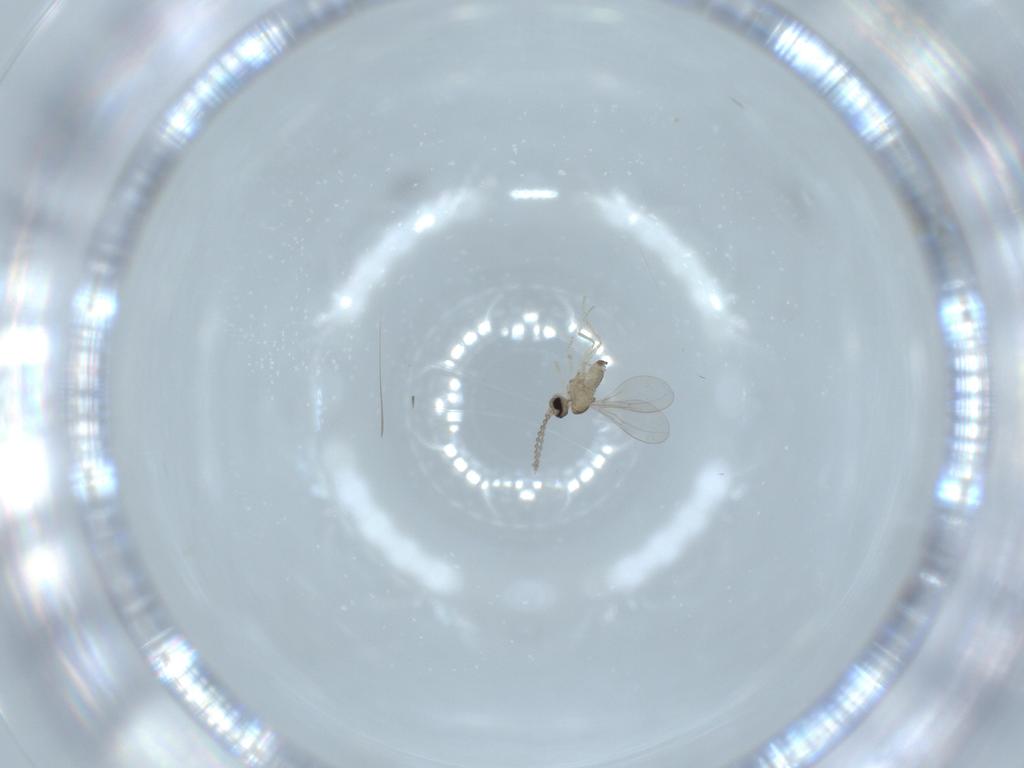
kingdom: Animalia
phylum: Arthropoda
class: Insecta
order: Diptera
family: Cecidomyiidae
